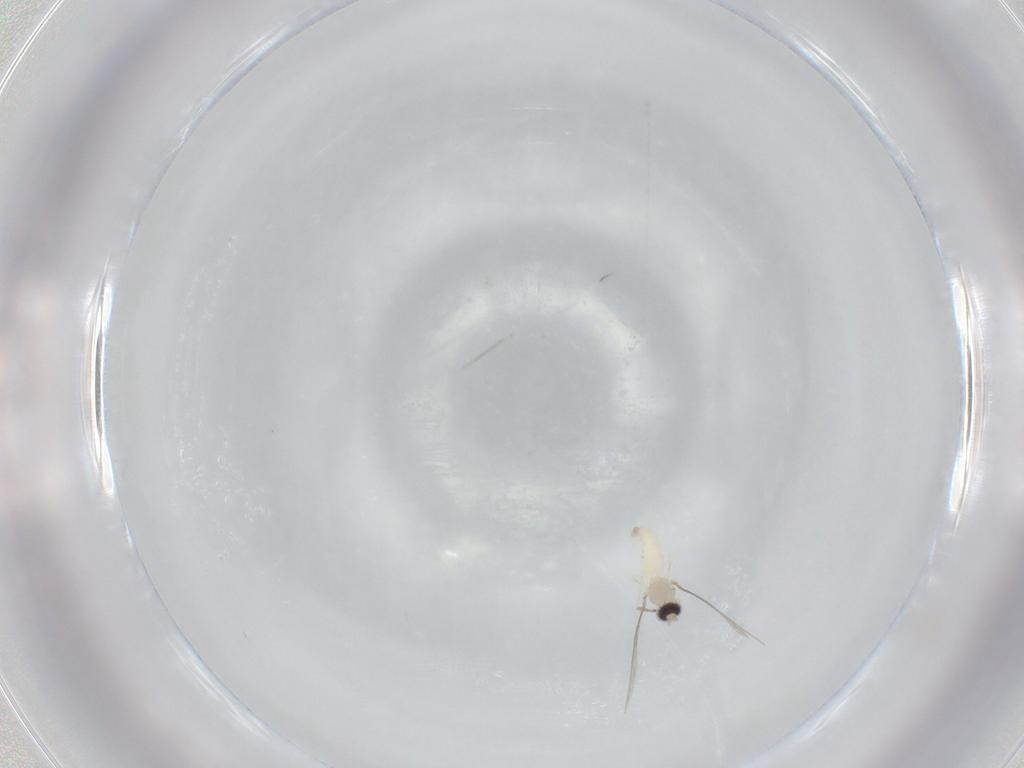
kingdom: Animalia
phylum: Arthropoda
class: Insecta
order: Diptera
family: Cecidomyiidae
